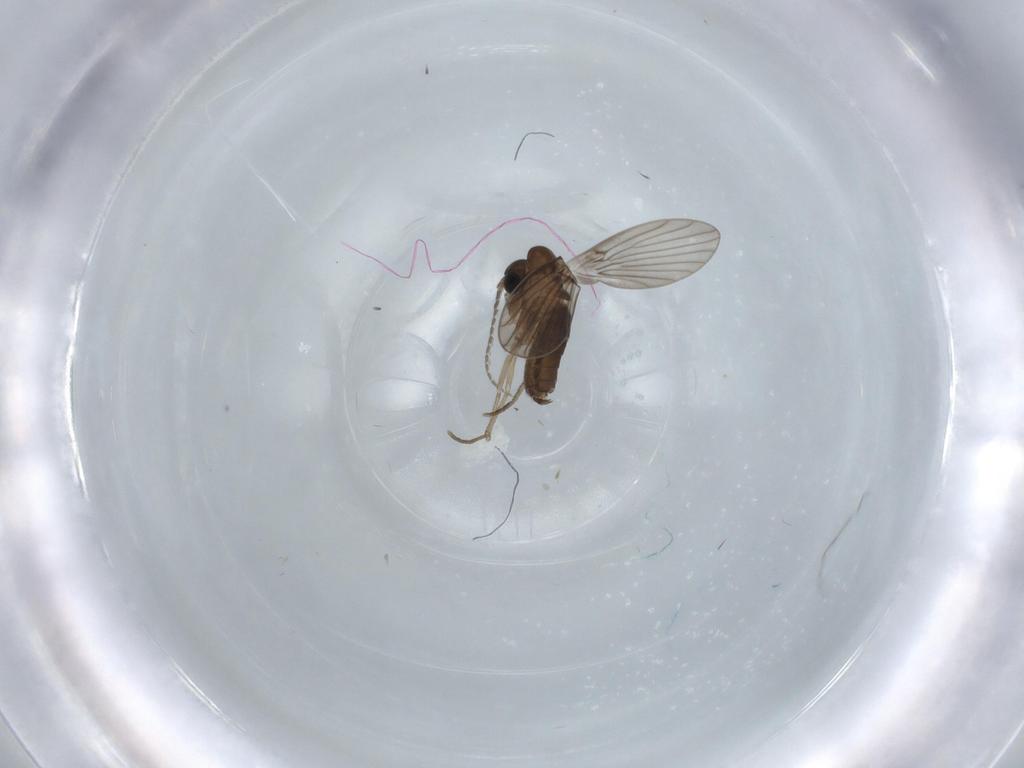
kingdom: Animalia
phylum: Arthropoda
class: Insecta
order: Diptera
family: Psychodidae
